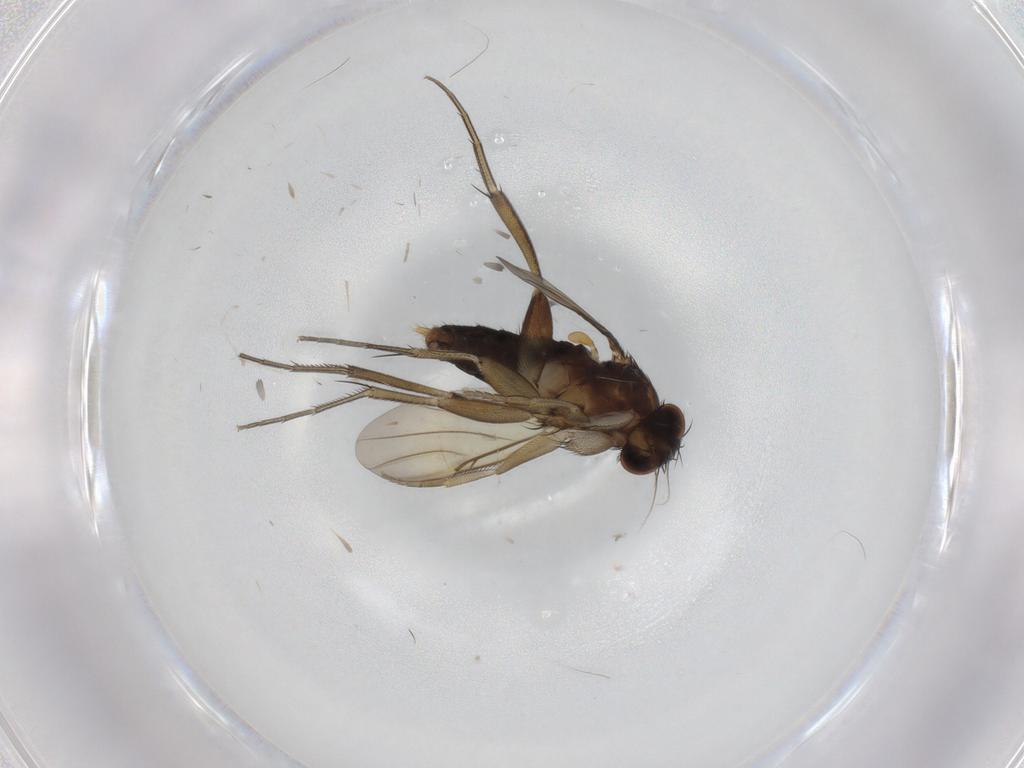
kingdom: Animalia
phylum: Arthropoda
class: Insecta
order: Diptera
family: Phoridae
